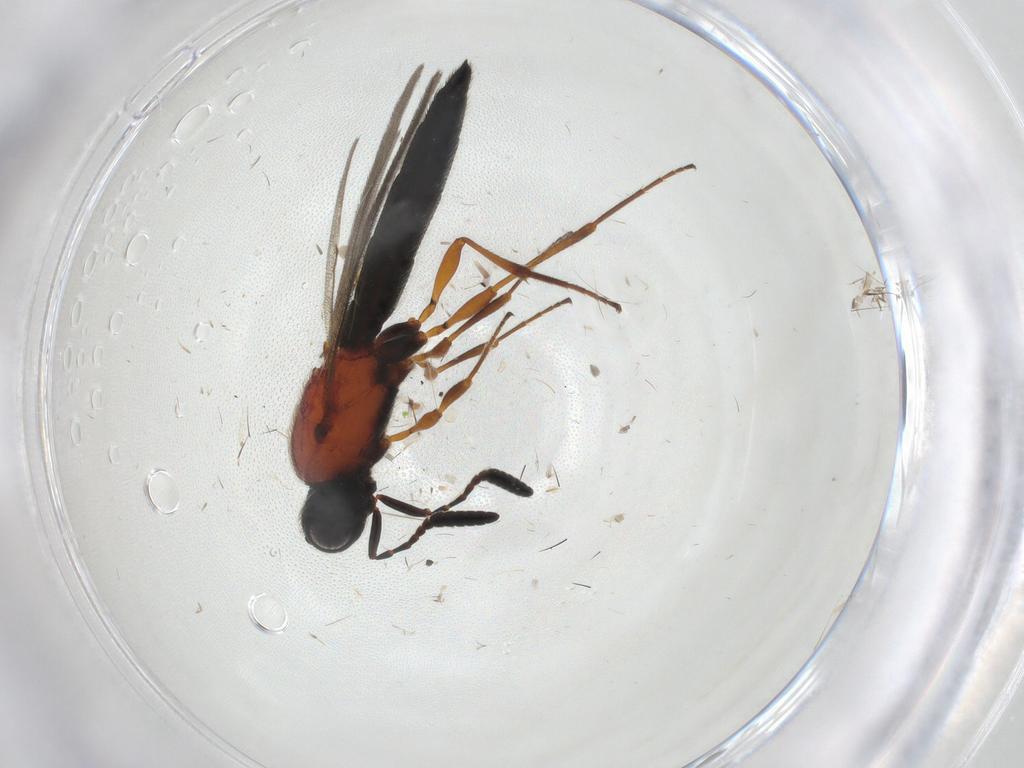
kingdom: Animalia
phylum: Arthropoda
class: Insecta
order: Hymenoptera
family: Scelionidae
